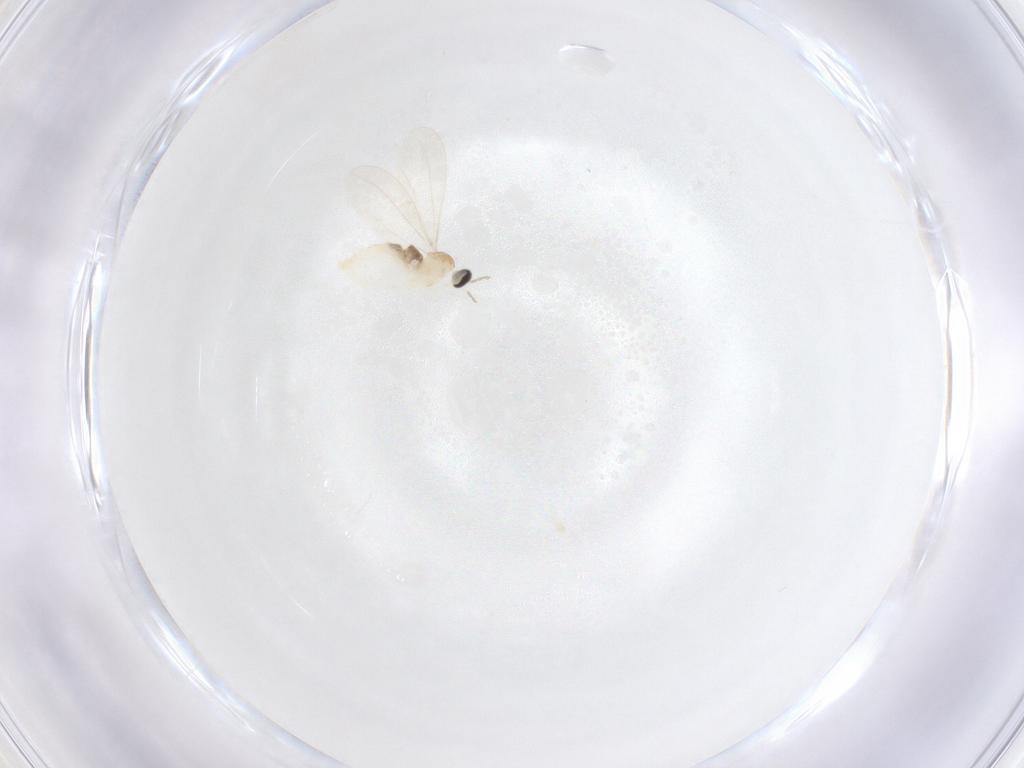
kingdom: Animalia
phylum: Arthropoda
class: Insecta
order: Diptera
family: Cecidomyiidae
